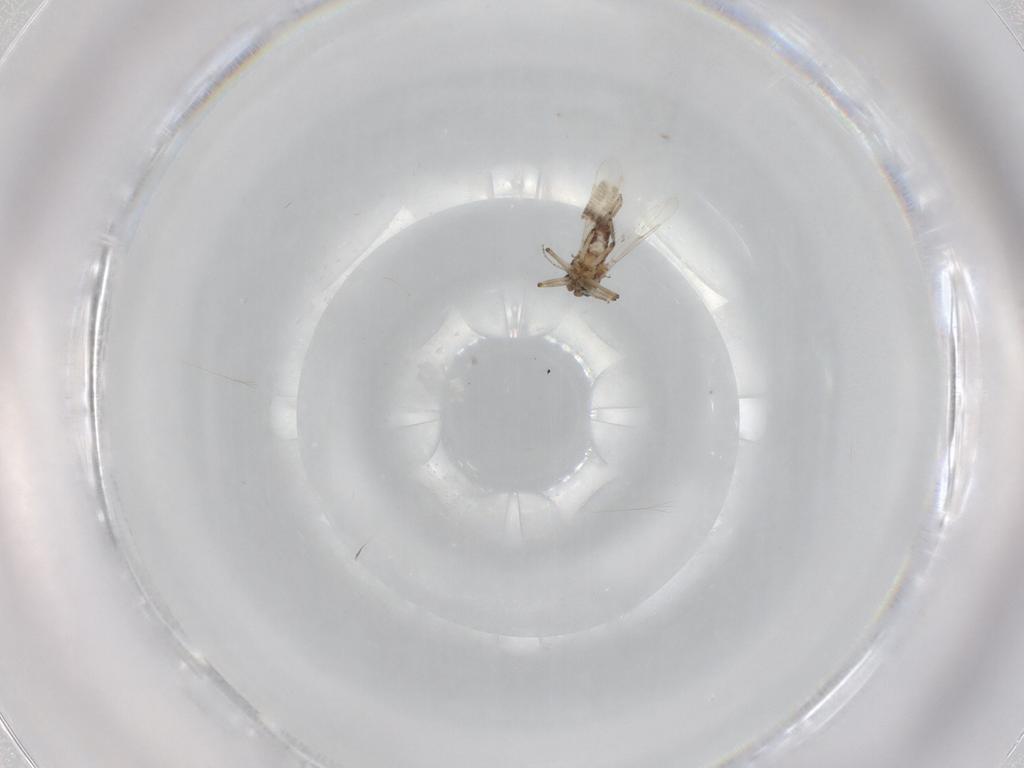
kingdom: Animalia
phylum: Arthropoda
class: Insecta
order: Diptera
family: Ceratopogonidae
